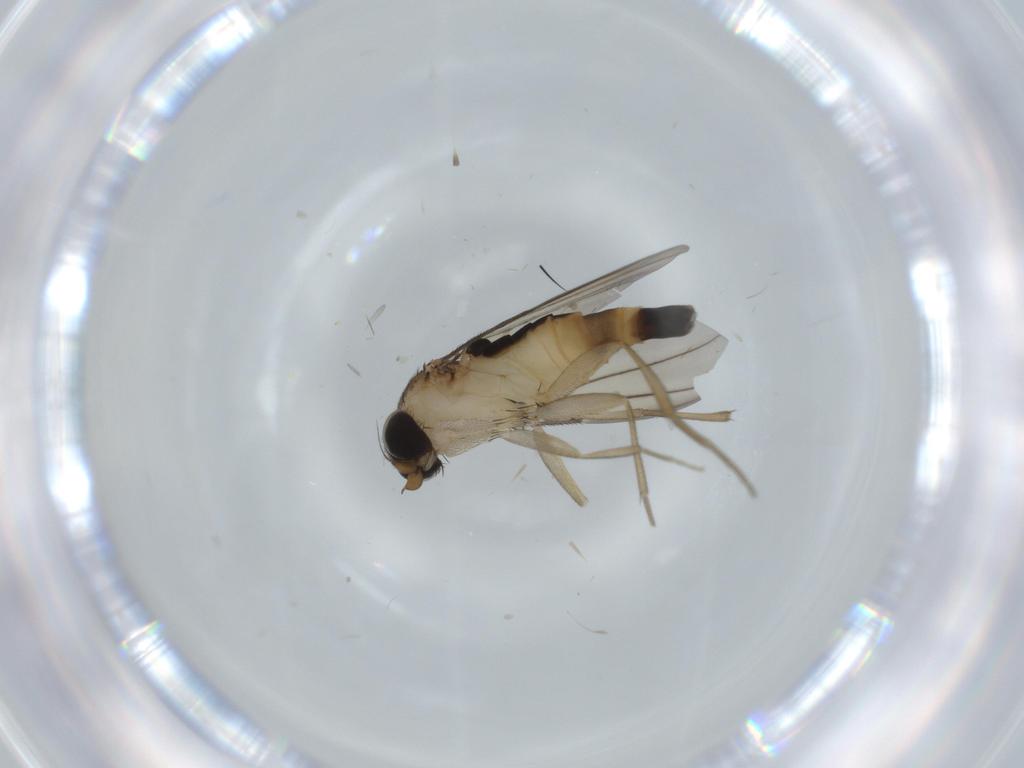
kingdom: Animalia
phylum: Arthropoda
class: Insecta
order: Diptera
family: Phoridae
